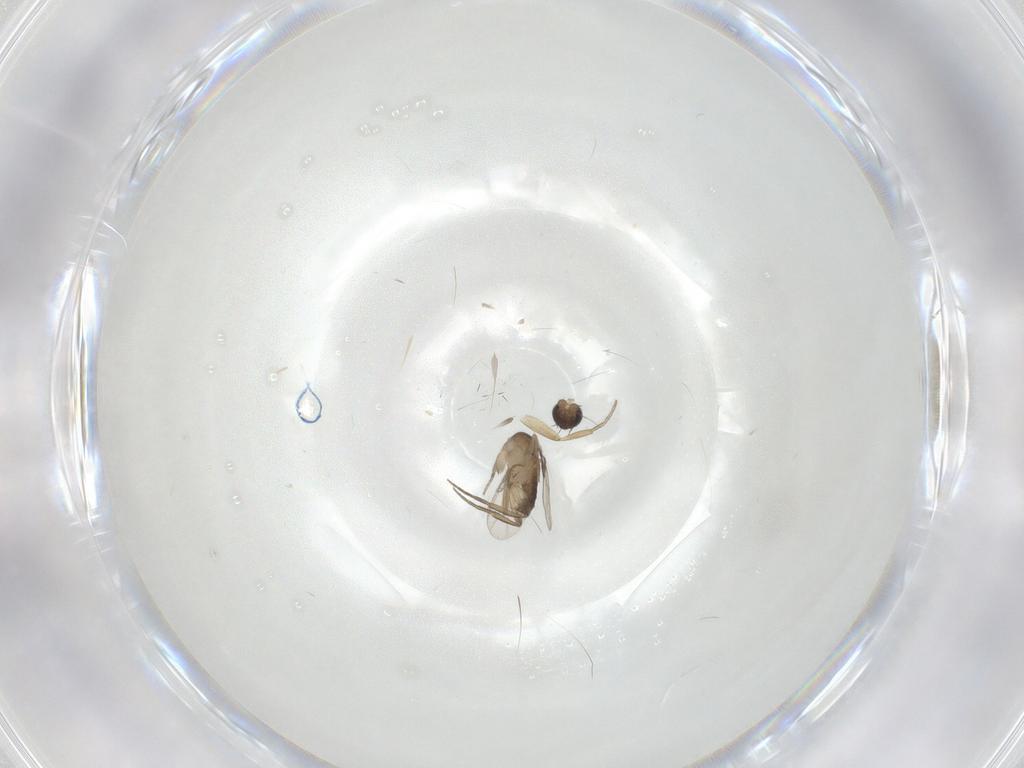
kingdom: Animalia
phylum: Arthropoda
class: Insecta
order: Diptera
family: Phoridae
